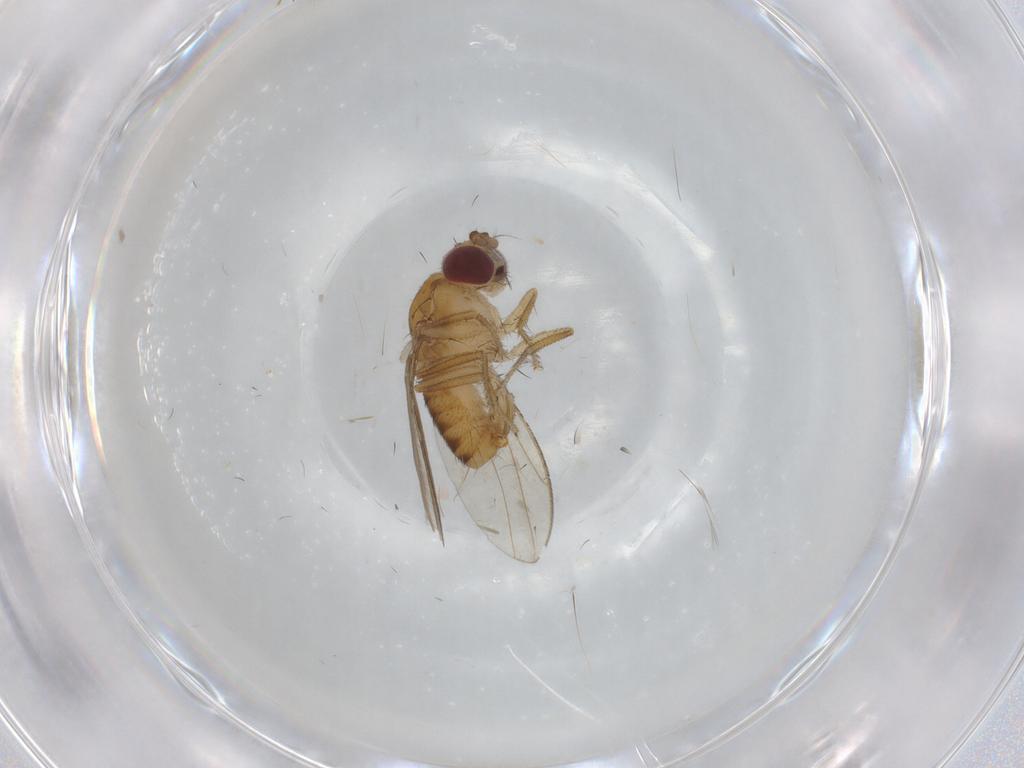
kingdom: Animalia
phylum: Arthropoda
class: Insecta
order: Diptera
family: Drosophilidae
